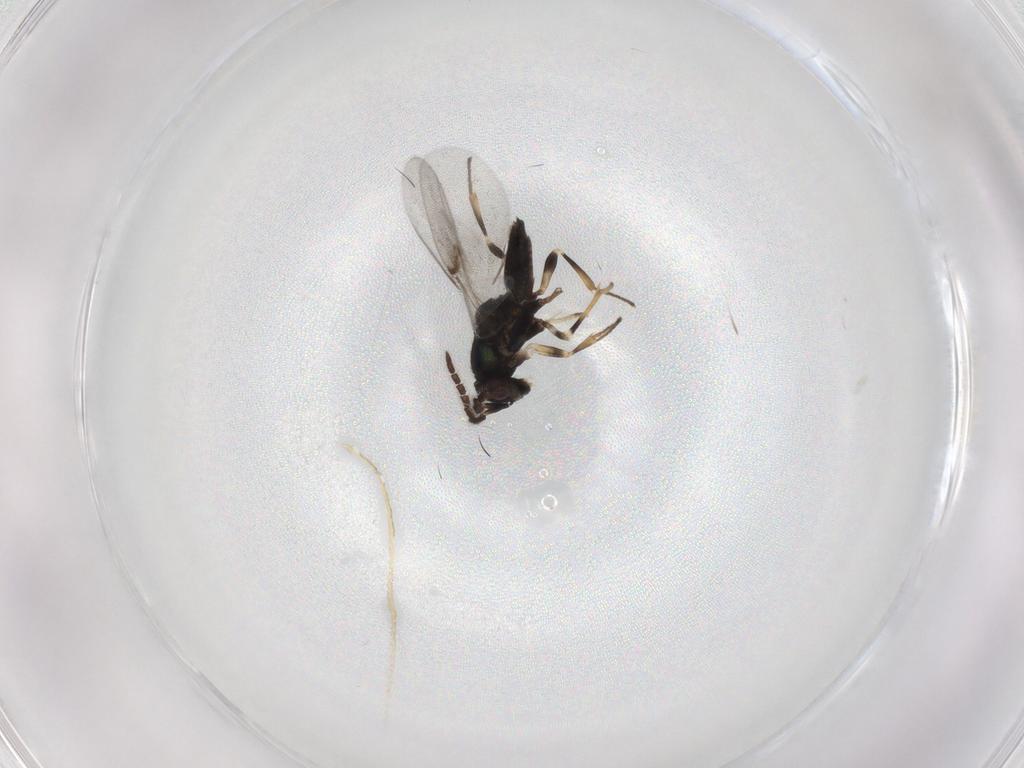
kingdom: Animalia
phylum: Arthropoda
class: Insecta
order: Hymenoptera
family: Encyrtidae
